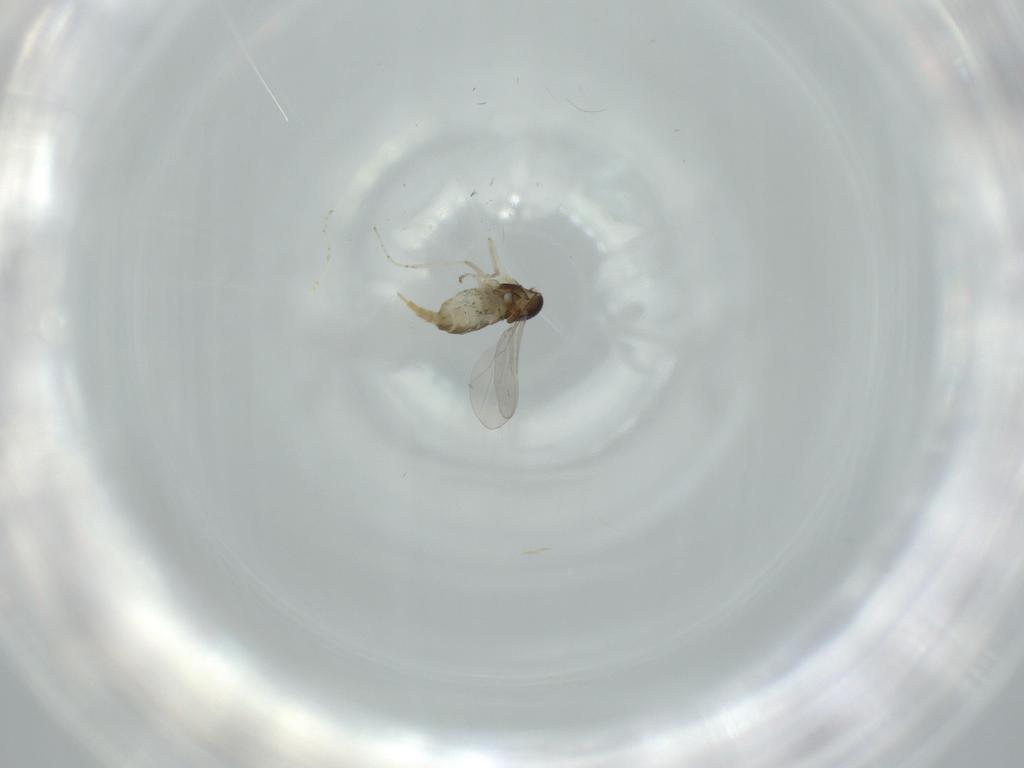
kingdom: Animalia
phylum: Arthropoda
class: Insecta
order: Diptera
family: Cecidomyiidae
